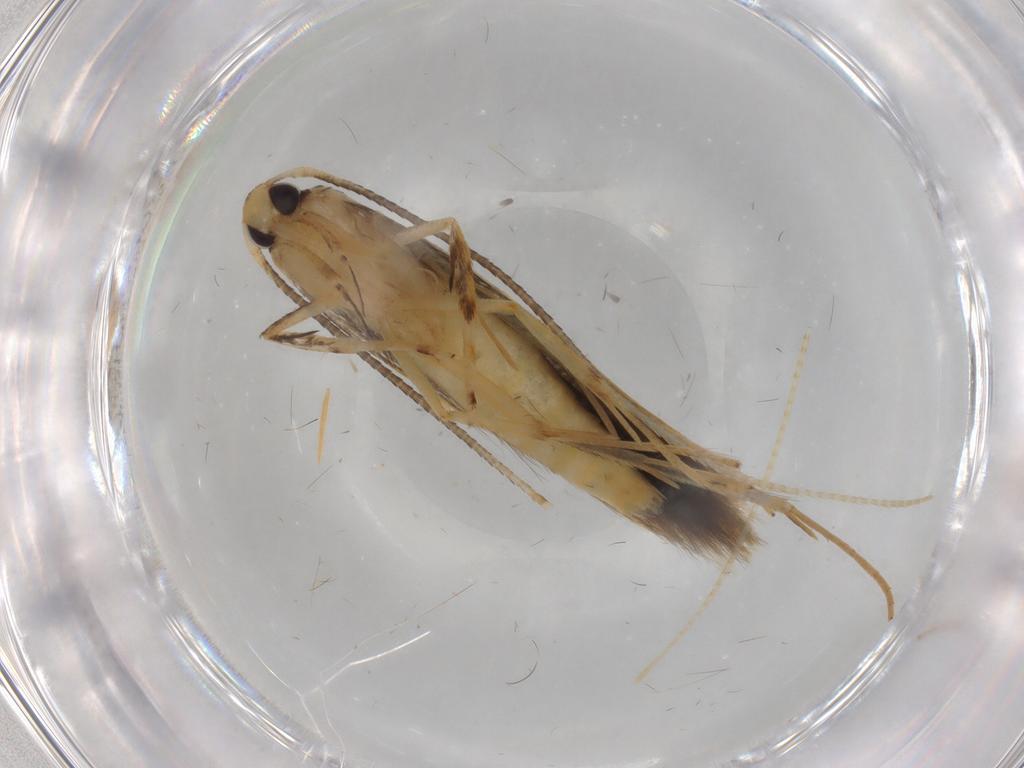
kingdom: Animalia
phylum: Arthropoda
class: Insecta
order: Lepidoptera
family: Pterolonchidae
